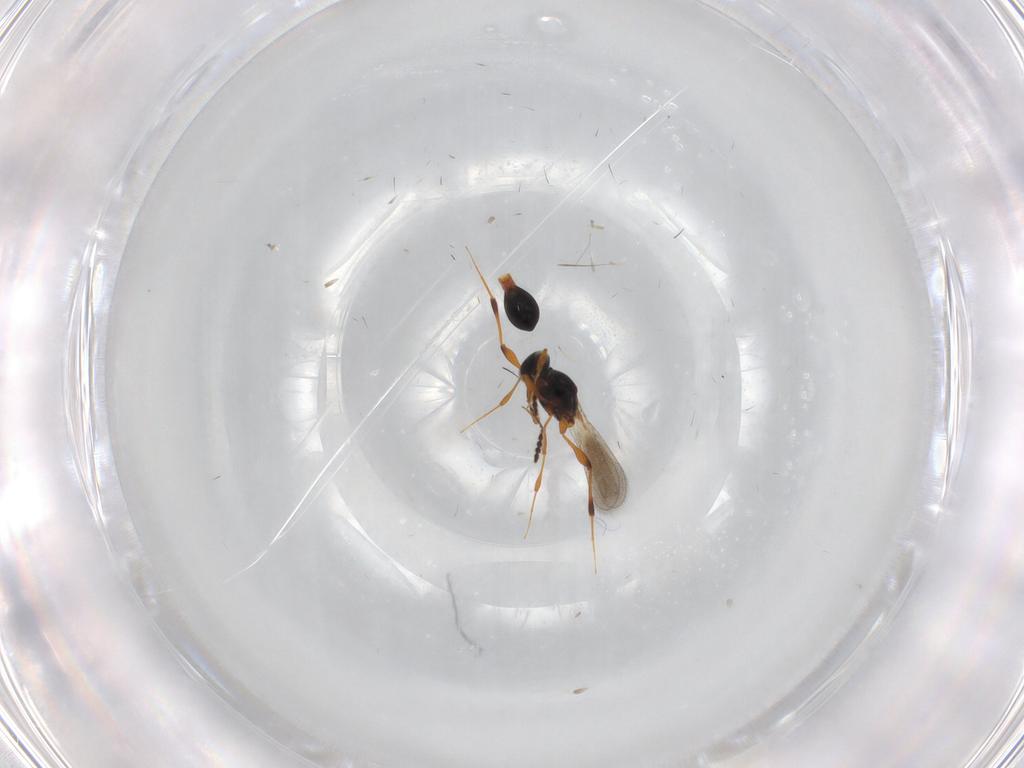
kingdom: Animalia
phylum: Arthropoda
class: Insecta
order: Hymenoptera
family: Platygastridae
